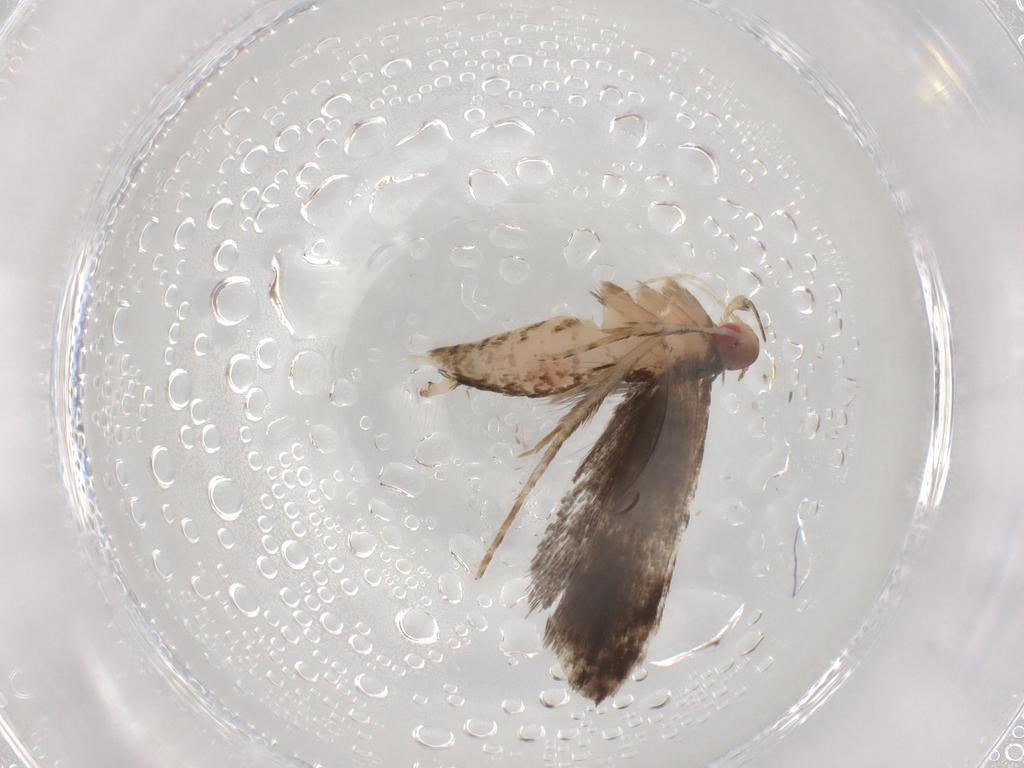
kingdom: Animalia
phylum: Arthropoda
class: Insecta
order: Lepidoptera
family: Gelechiidae
